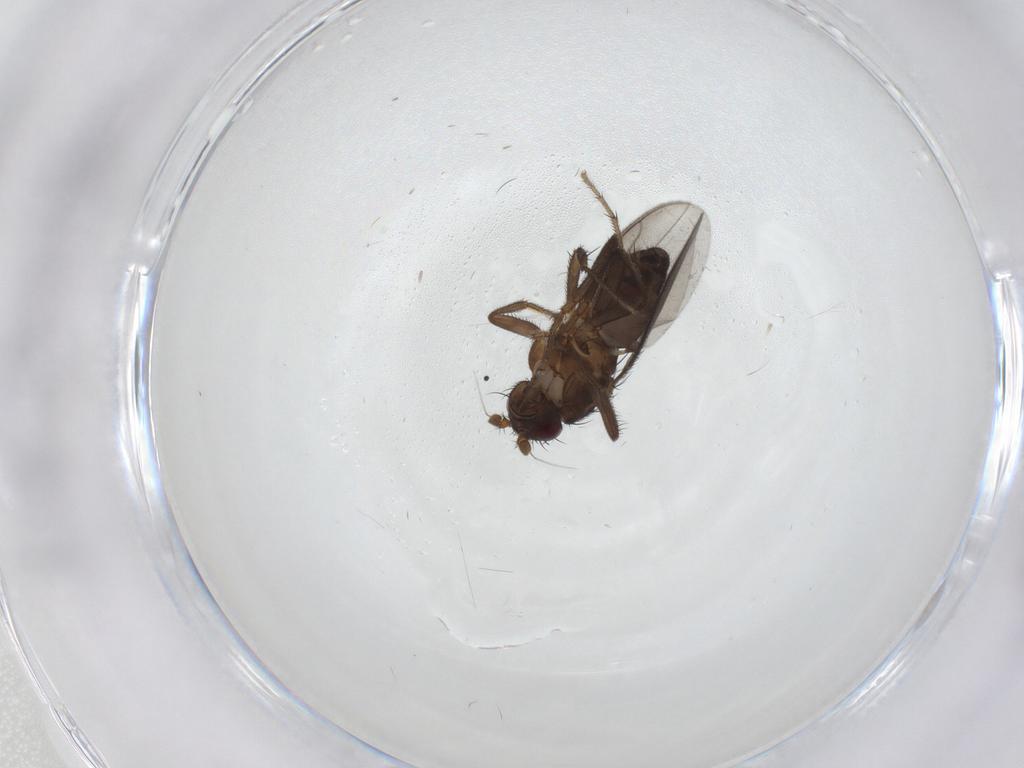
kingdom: Animalia
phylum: Arthropoda
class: Insecta
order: Diptera
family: Sphaeroceridae
